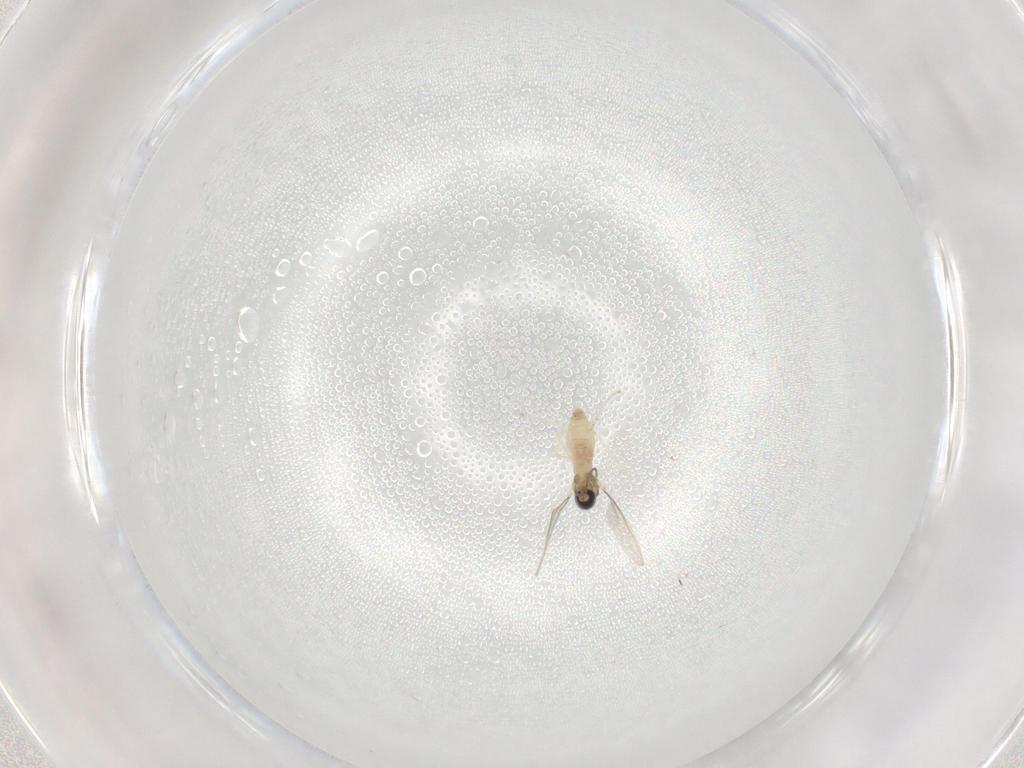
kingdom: Animalia
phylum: Arthropoda
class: Insecta
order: Diptera
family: Cecidomyiidae
